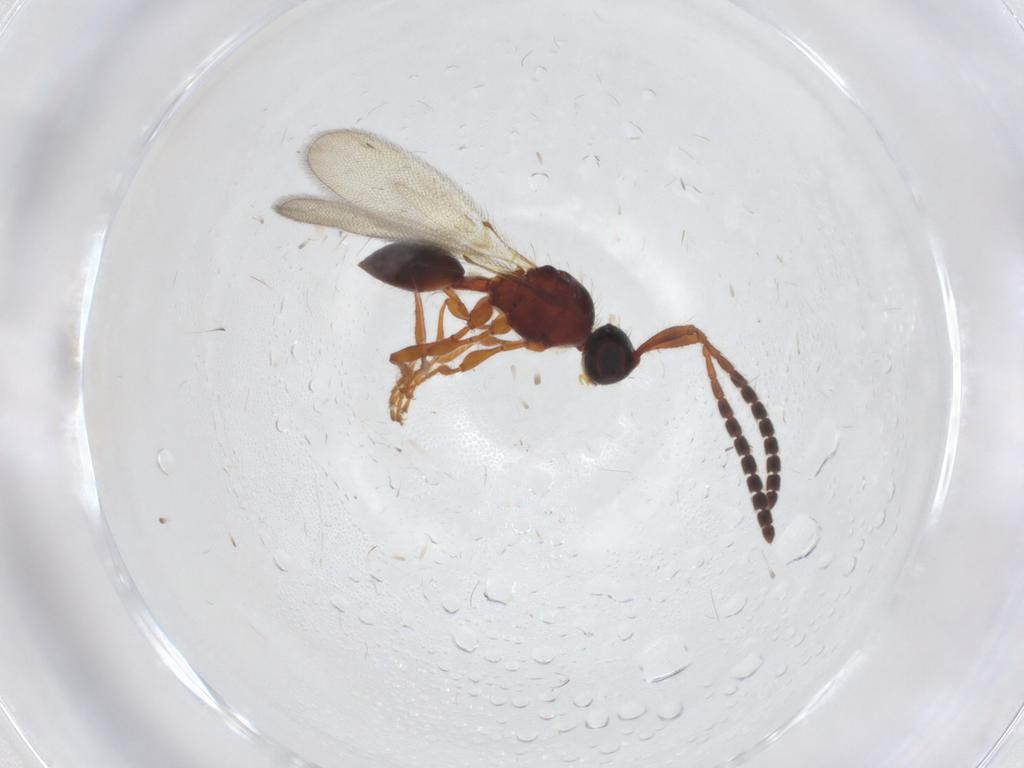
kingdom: Animalia
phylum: Arthropoda
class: Insecta
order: Hymenoptera
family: Diapriidae
